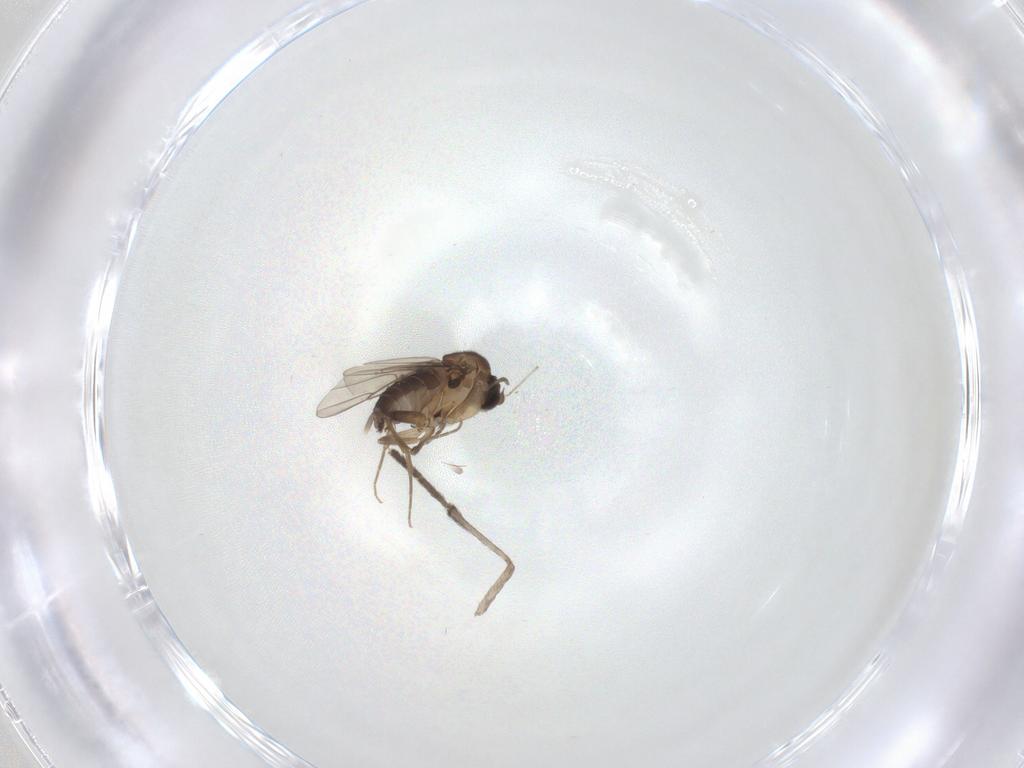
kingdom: Animalia
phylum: Arthropoda
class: Insecta
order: Diptera
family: Psychodidae
